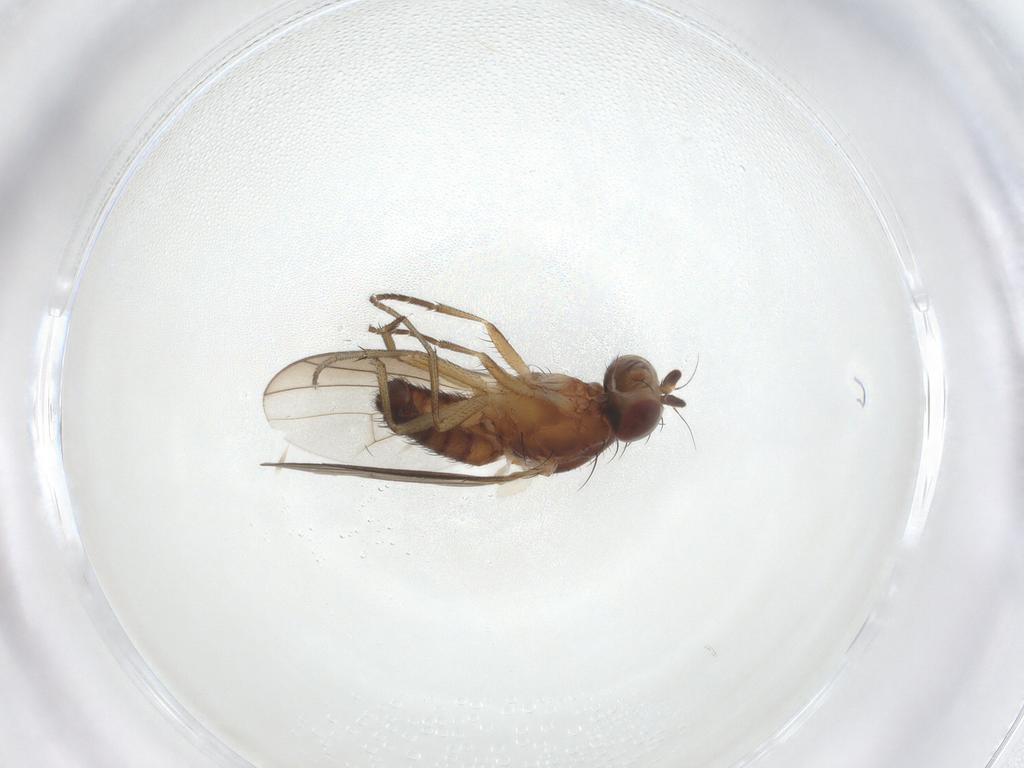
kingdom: Animalia
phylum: Arthropoda
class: Insecta
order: Diptera
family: Heleomyzidae
